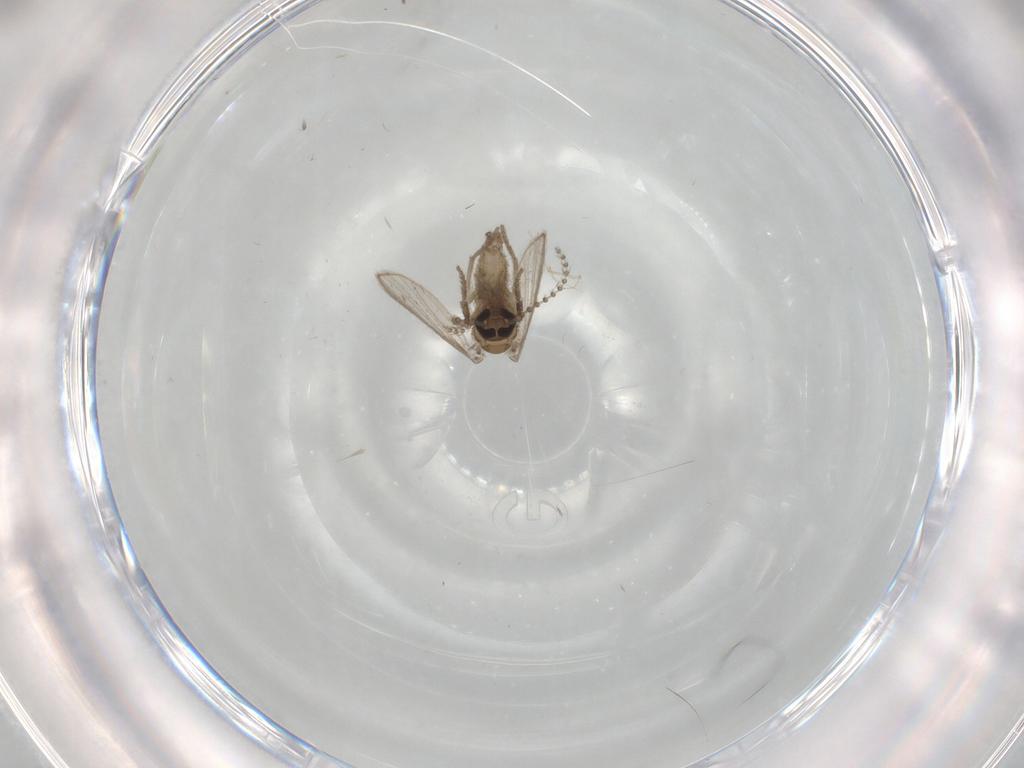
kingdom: Animalia
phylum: Arthropoda
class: Insecta
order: Diptera
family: Psychodidae
